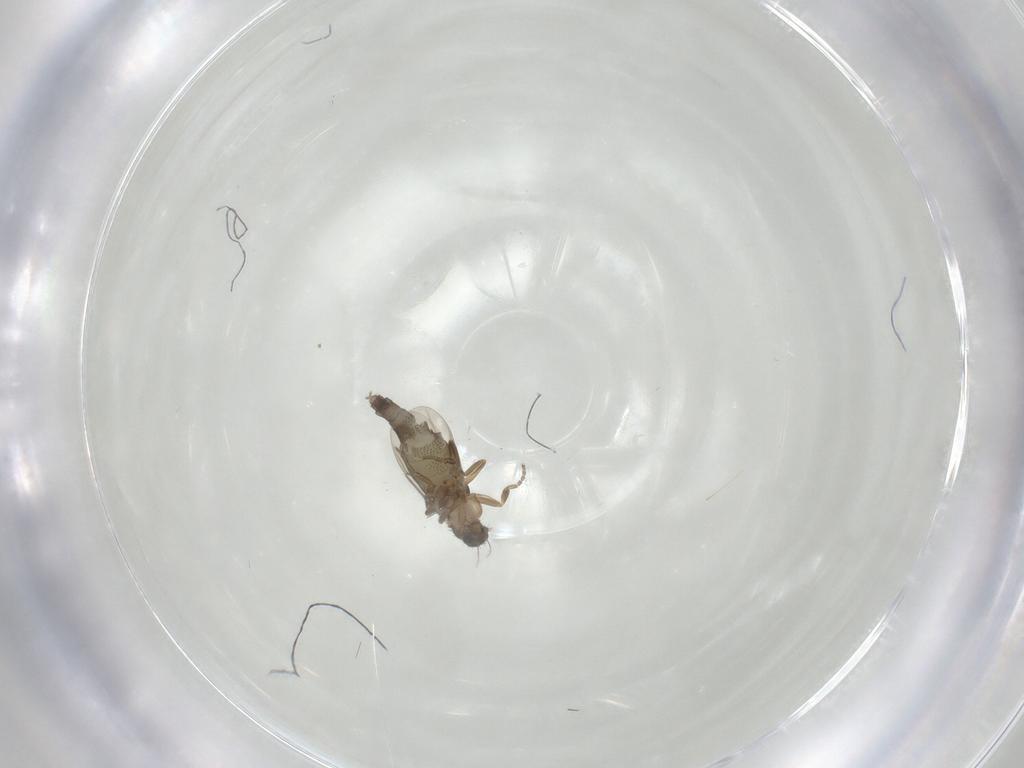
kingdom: Animalia
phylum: Arthropoda
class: Insecta
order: Diptera
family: Phoridae
